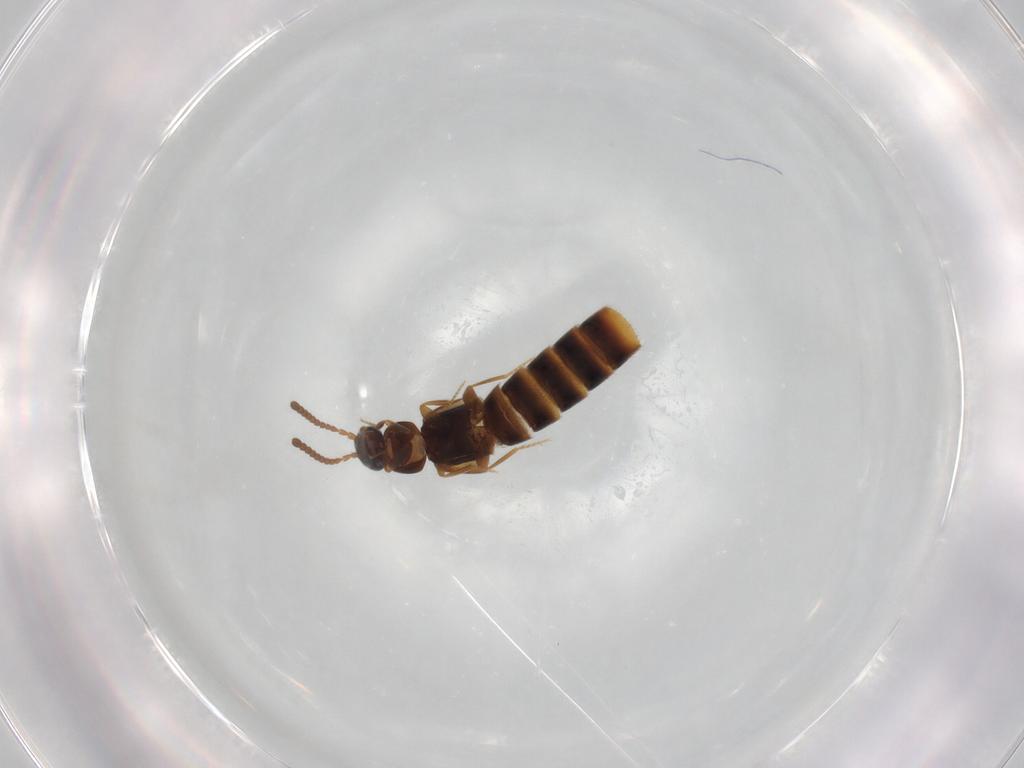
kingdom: Animalia
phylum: Arthropoda
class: Insecta
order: Coleoptera
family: Staphylinidae
